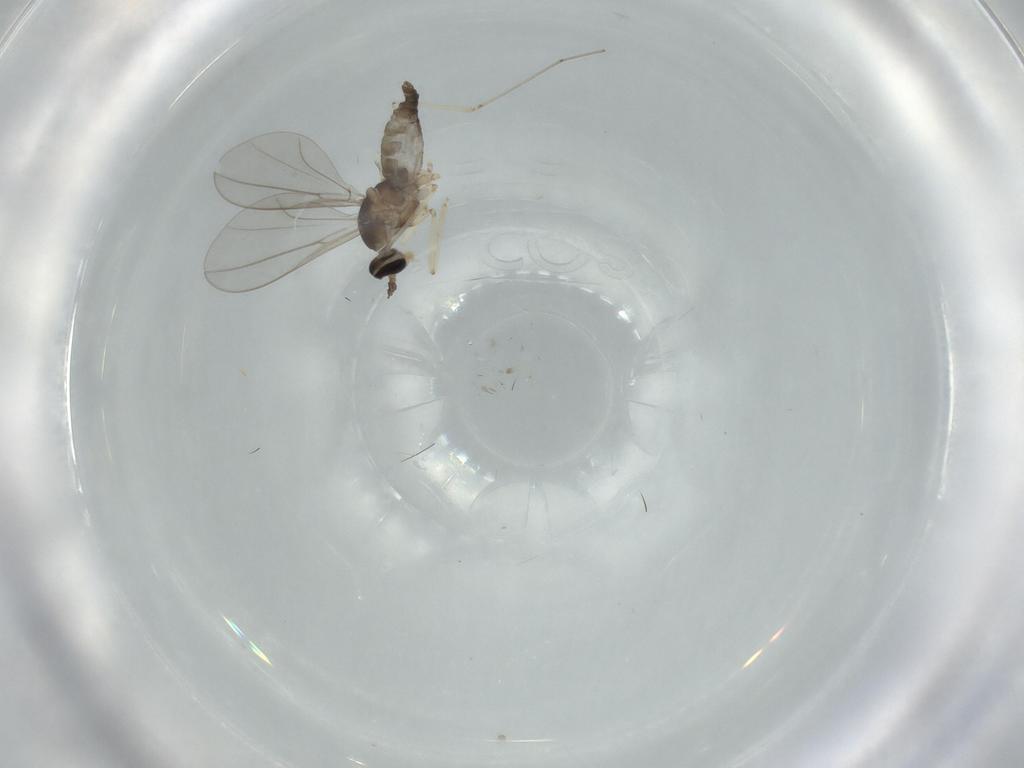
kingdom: Animalia
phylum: Arthropoda
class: Insecta
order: Diptera
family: Cecidomyiidae
